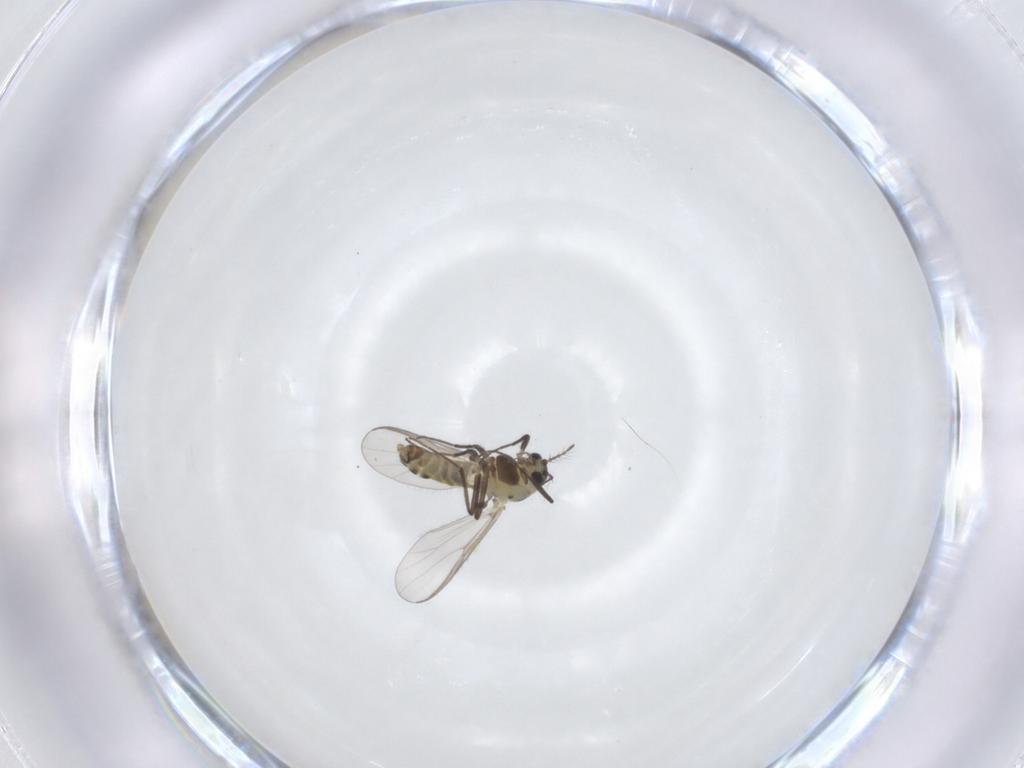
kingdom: Animalia
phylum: Arthropoda
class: Insecta
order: Diptera
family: Chironomidae
